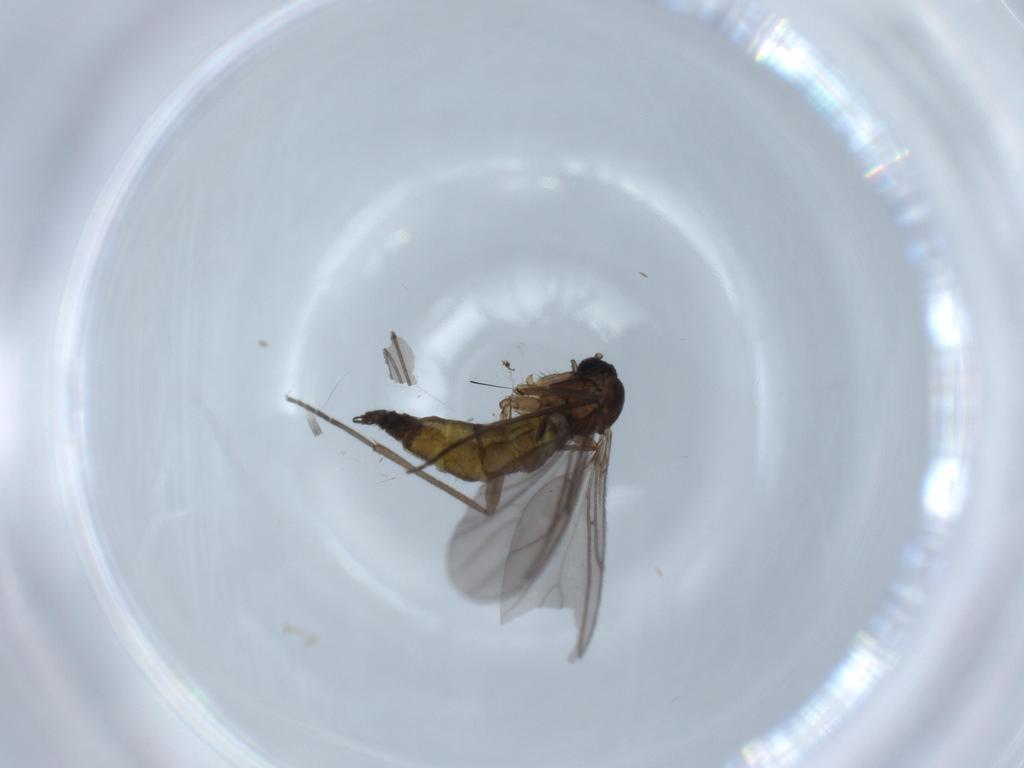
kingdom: Animalia
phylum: Arthropoda
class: Insecta
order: Diptera
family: Sciaridae
